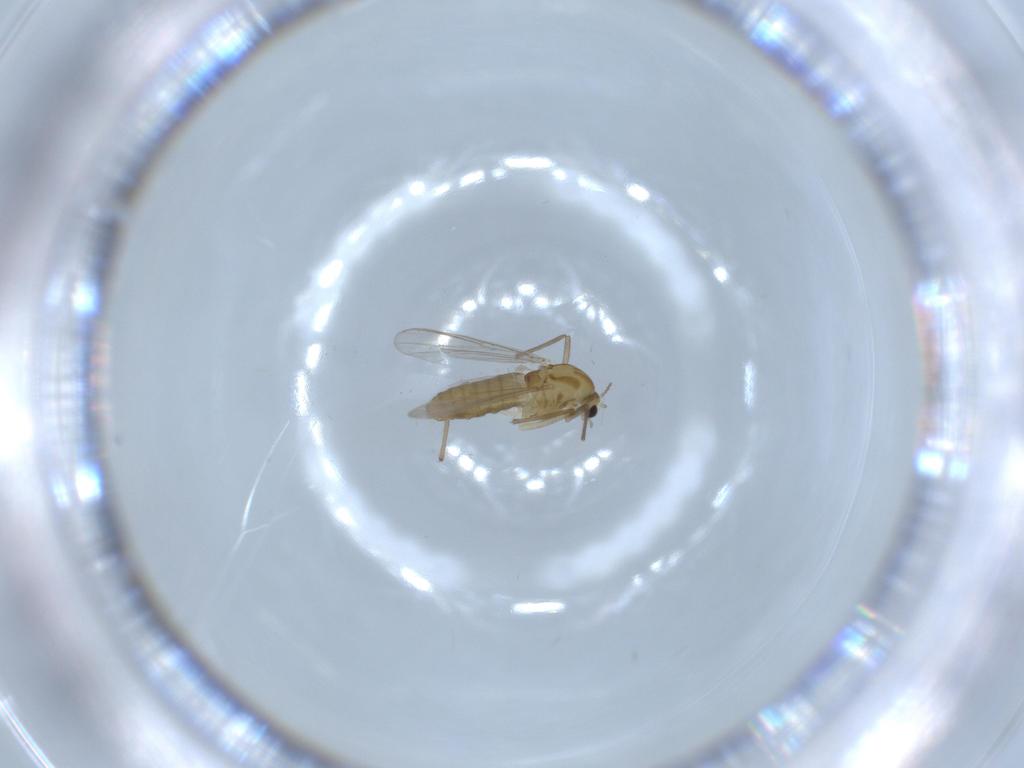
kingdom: Animalia
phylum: Arthropoda
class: Insecta
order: Diptera
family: Chironomidae
